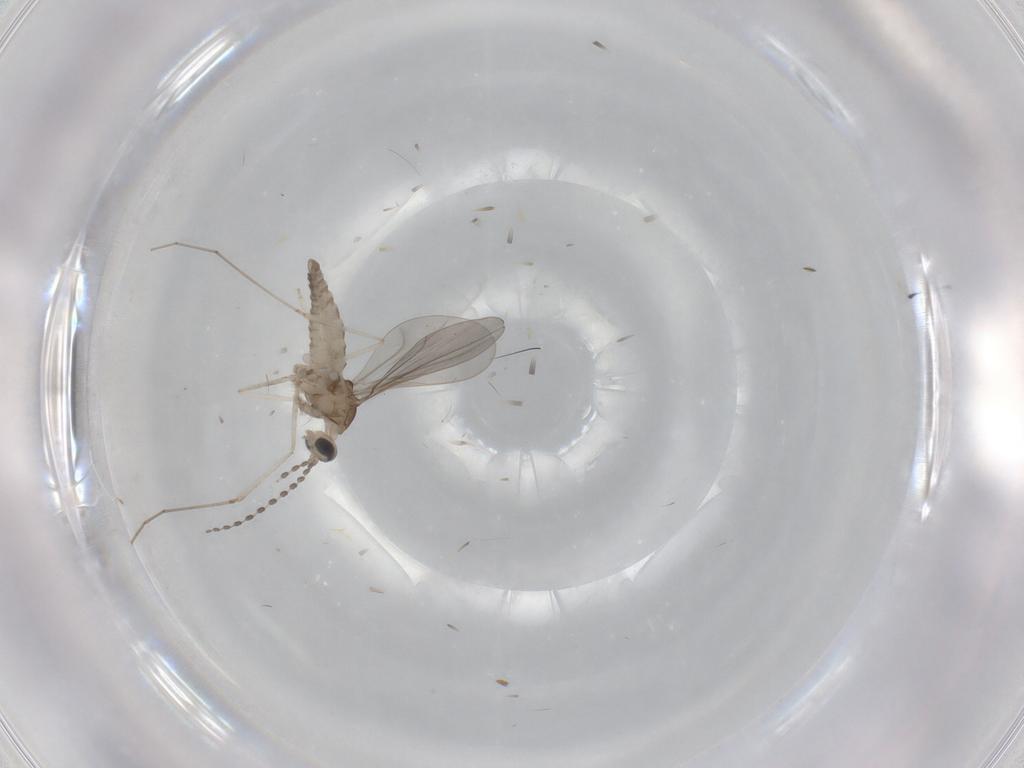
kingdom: Animalia
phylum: Arthropoda
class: Insecta
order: Diptera
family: Cecidomyiidae
